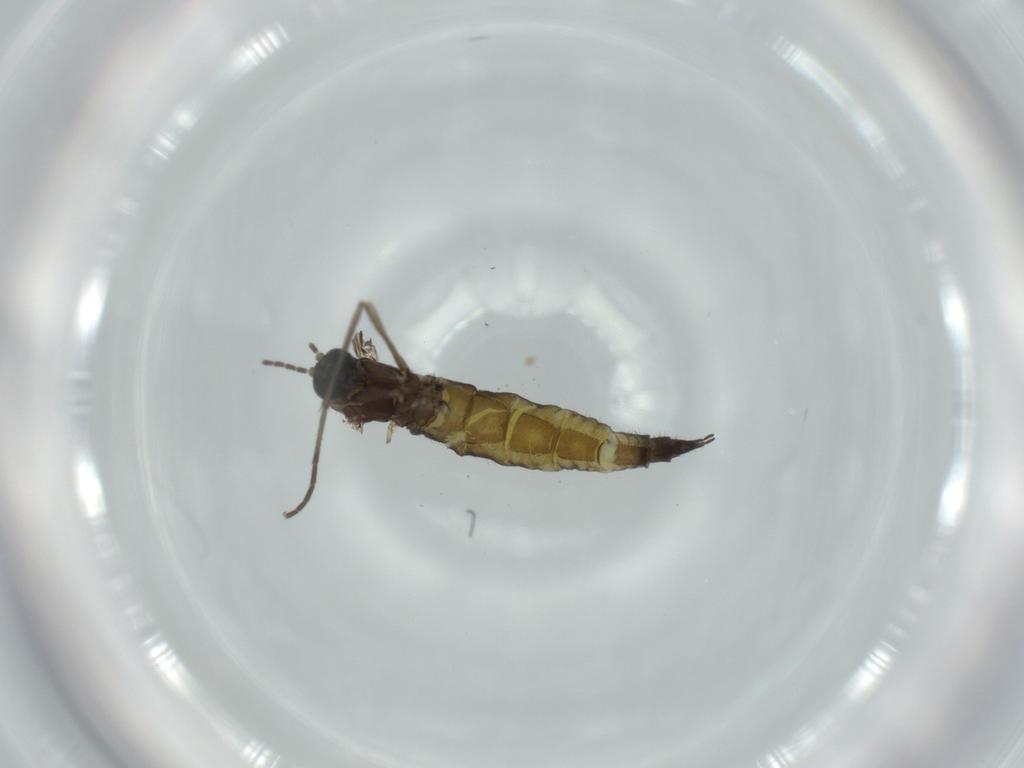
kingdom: Animalia
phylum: Arthropoda
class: Insecta
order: Diptera
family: Sciaridae
